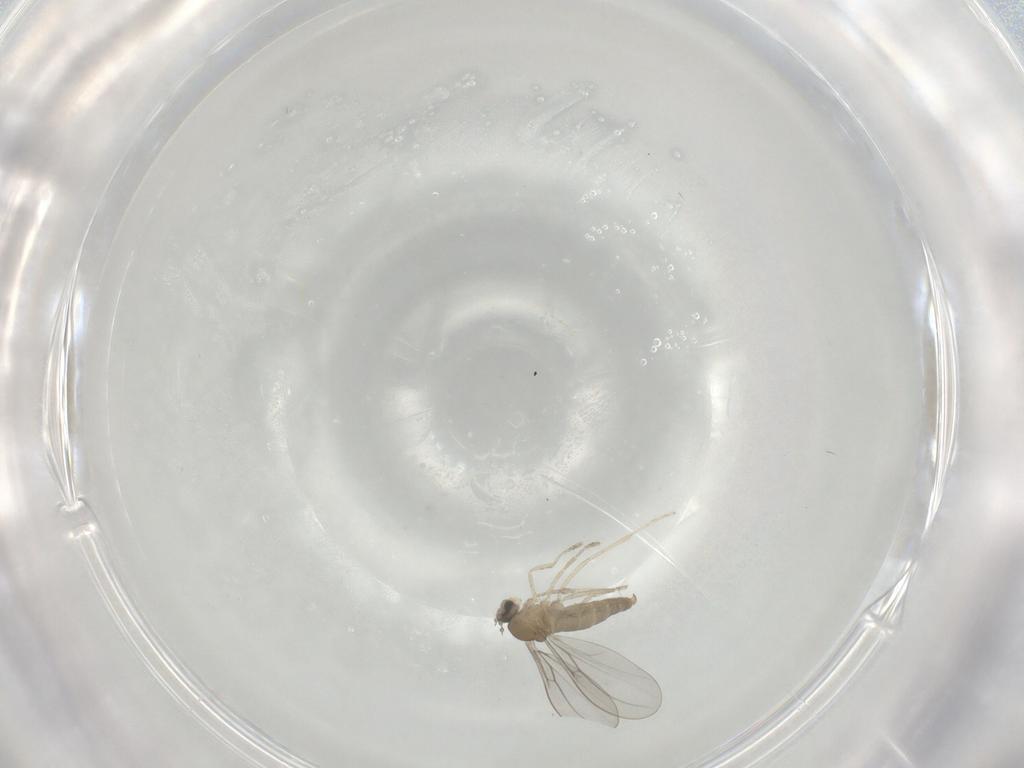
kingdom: Animalia
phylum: Arthropoda
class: Insecta
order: Diptera
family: Cecidomyiidae
